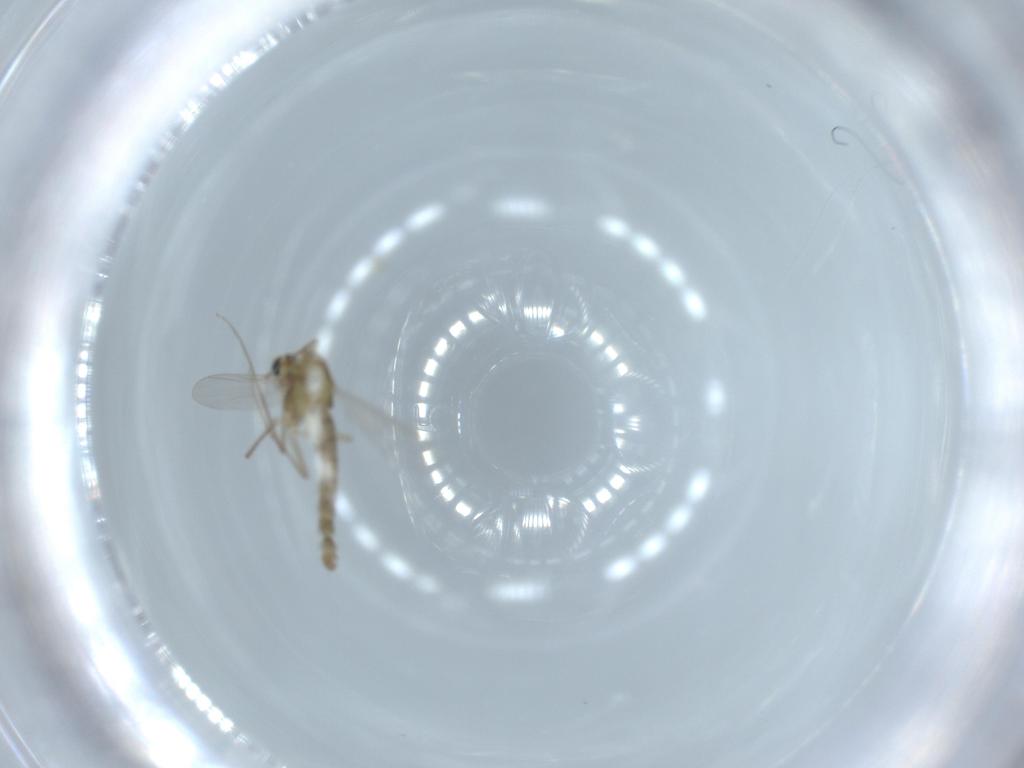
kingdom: Animalia
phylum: Arthropoda
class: Insecta
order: Diptera
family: Chironomidae
